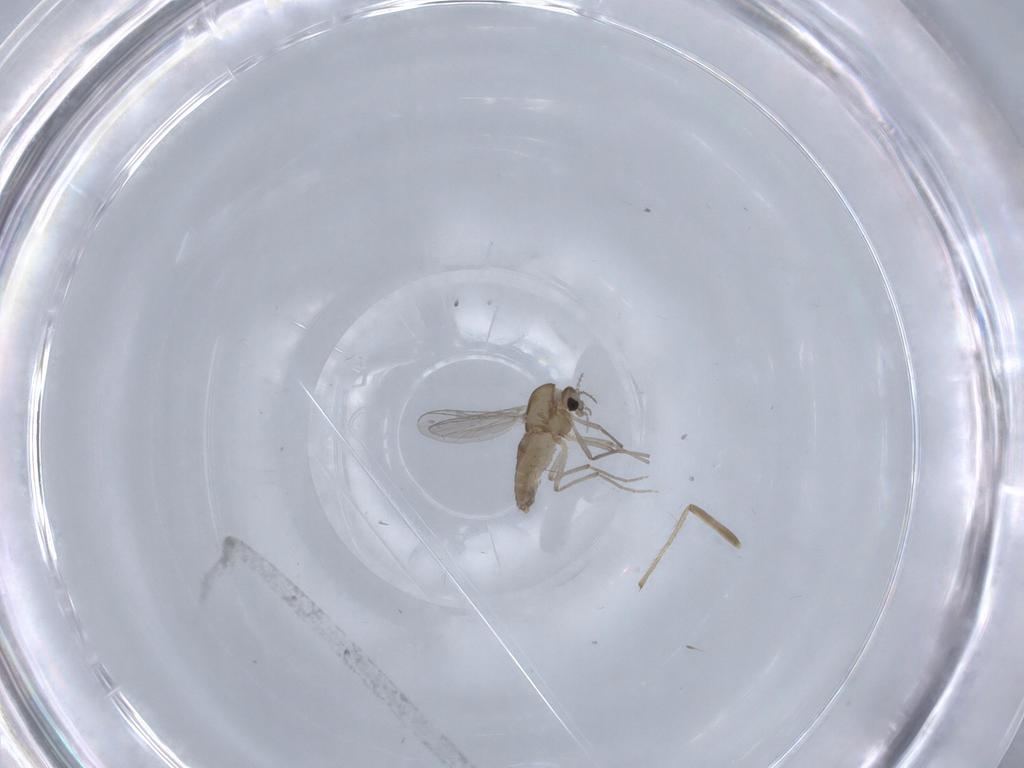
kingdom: Animalia
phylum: Arthropoda
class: Insecta
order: Diptera
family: Chironomidae
